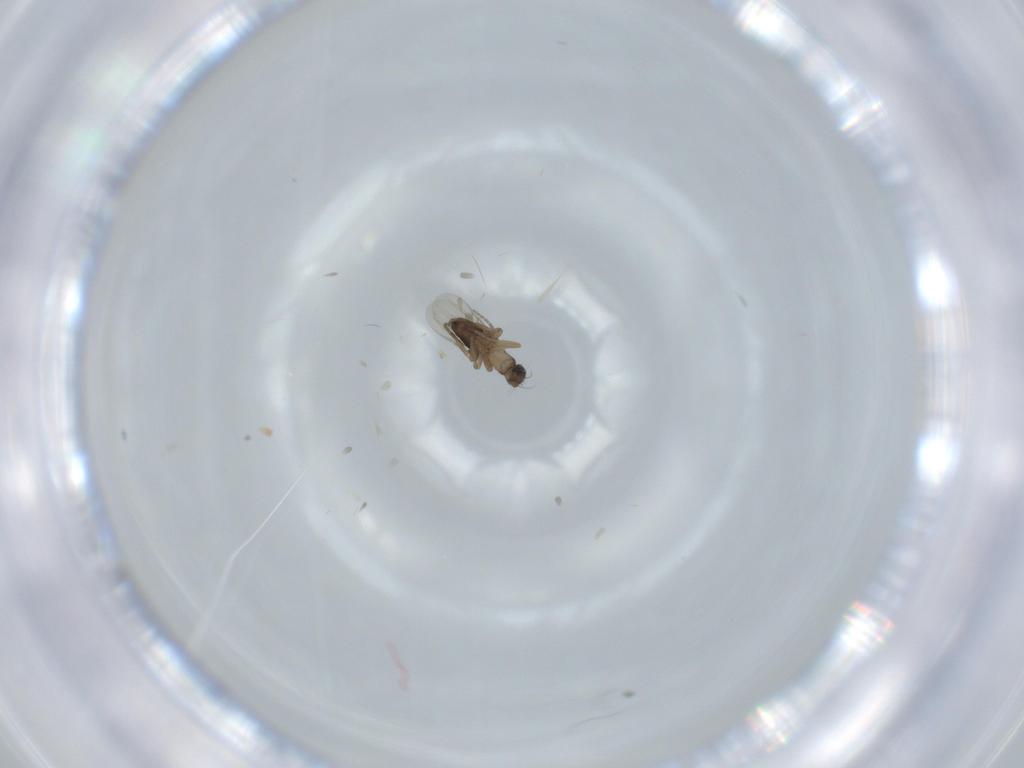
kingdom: Animalia
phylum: Arthropoda
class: Insecta
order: Diptera
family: Phoridae
